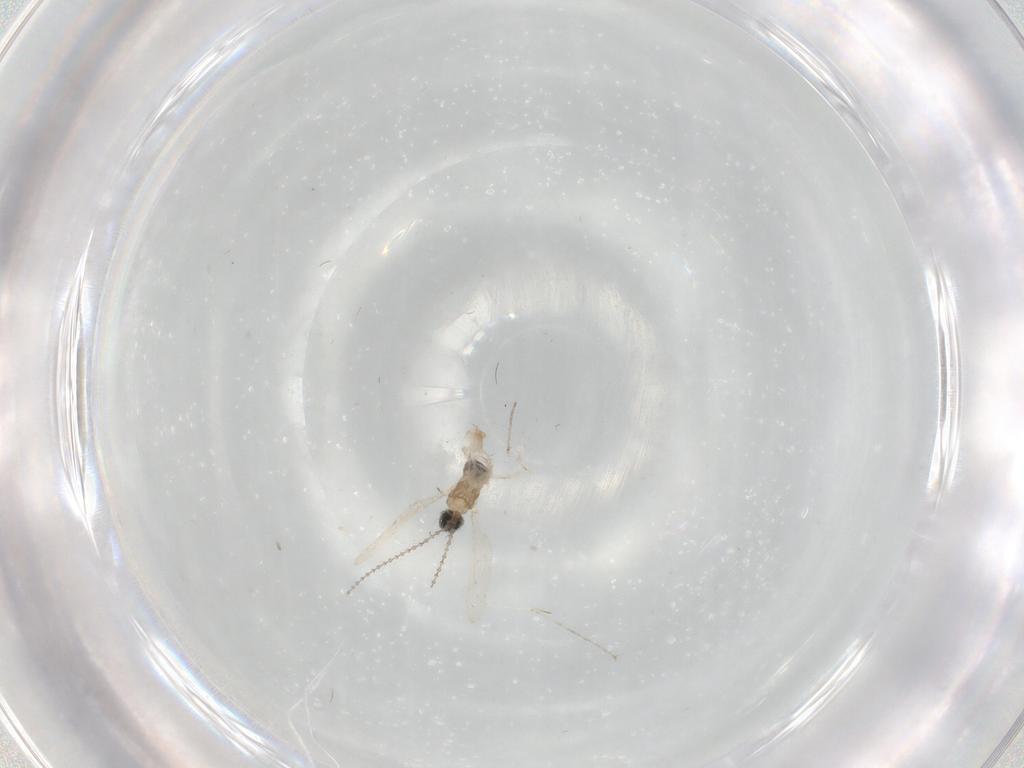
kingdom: Animalia
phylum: Arthropoda
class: Insecta
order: Diptera
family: Cecidomyiidae
